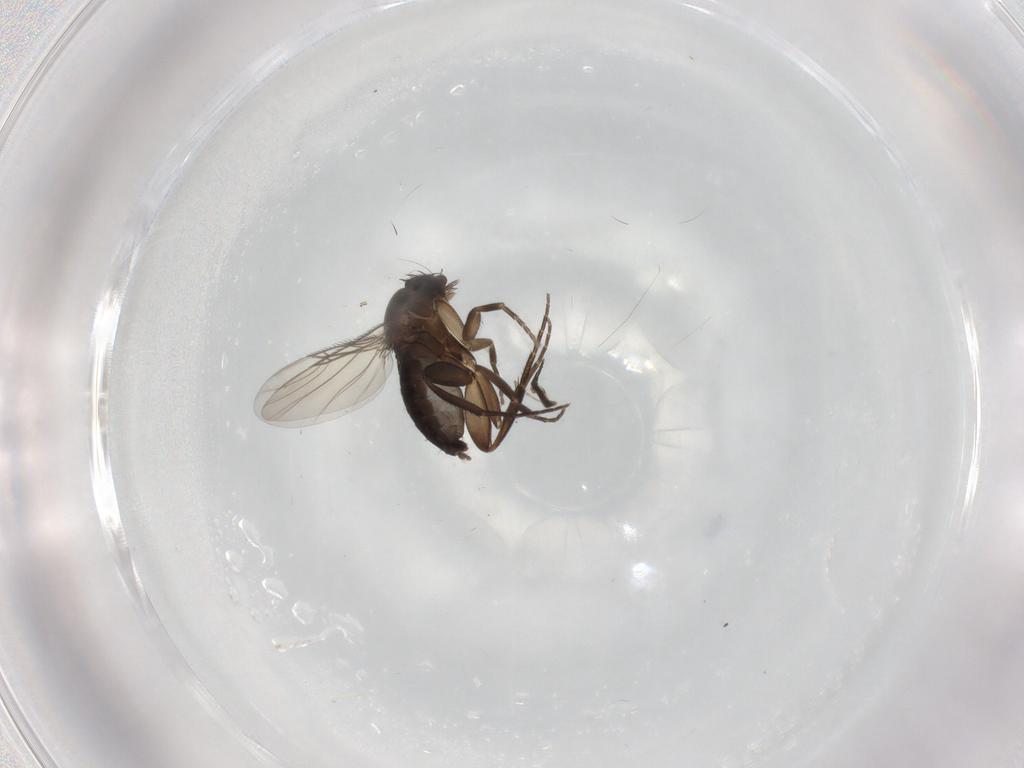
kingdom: Animalia
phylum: Arthropoda
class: Insecta
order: Diptera
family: Phoridae
